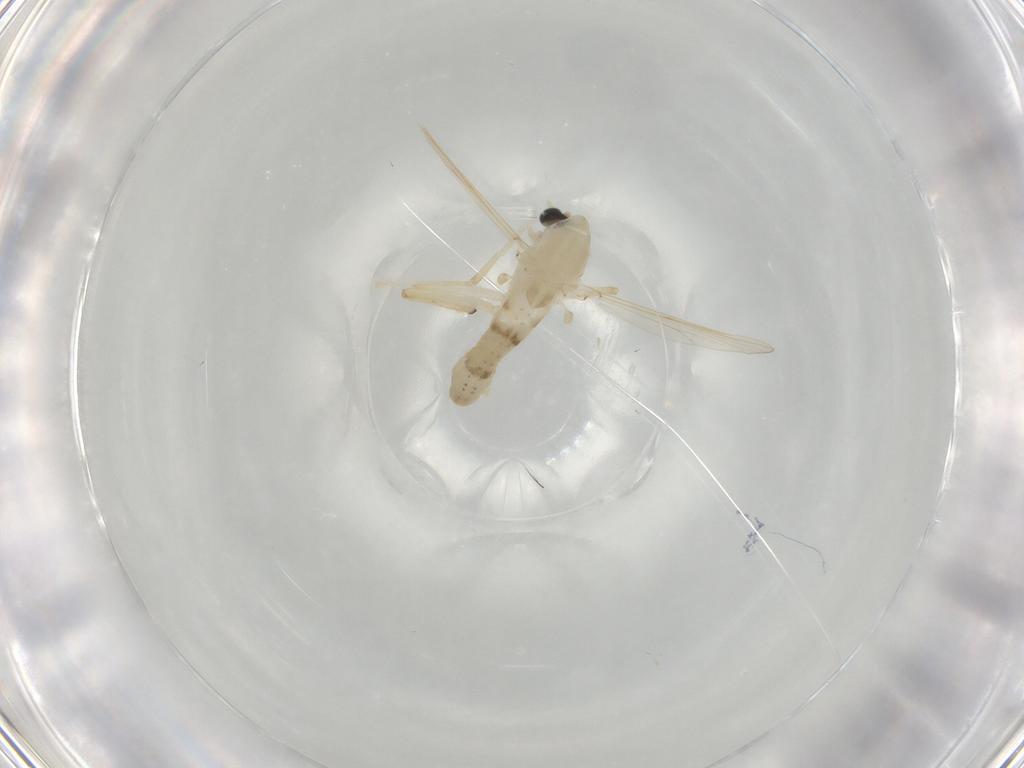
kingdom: Animalia
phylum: Arthropoda
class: Insecta
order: Diptera
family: Chironomidae
